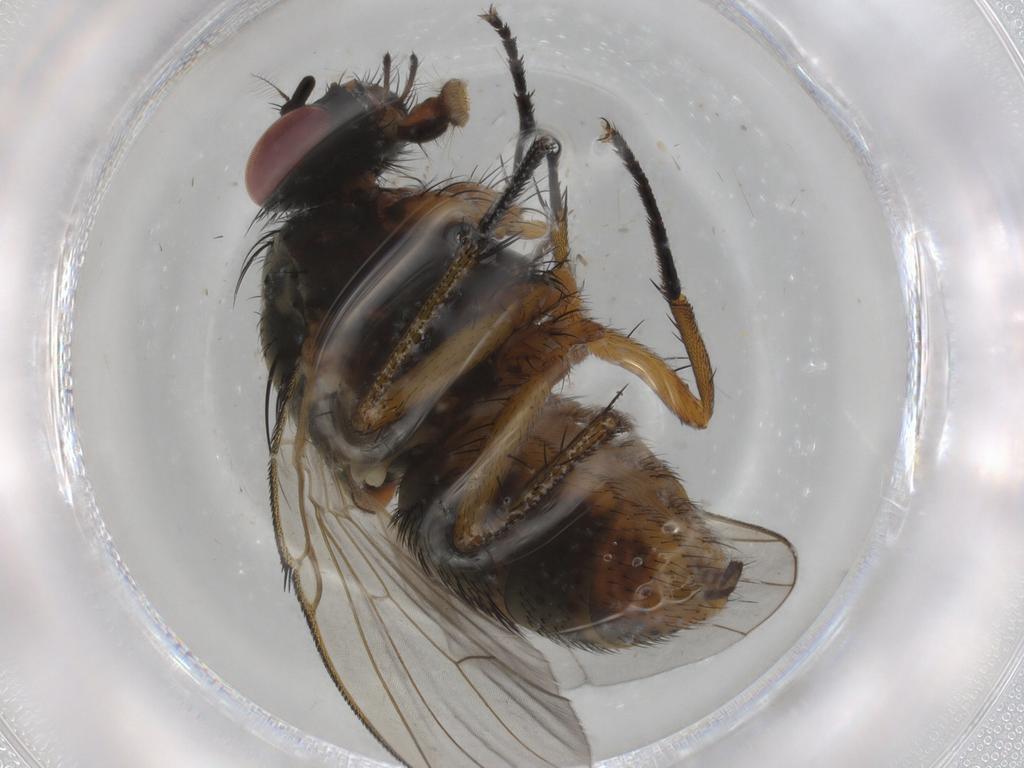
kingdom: Animalia
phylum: Arthropoda
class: Insecta
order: Diptera
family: Muscidae
